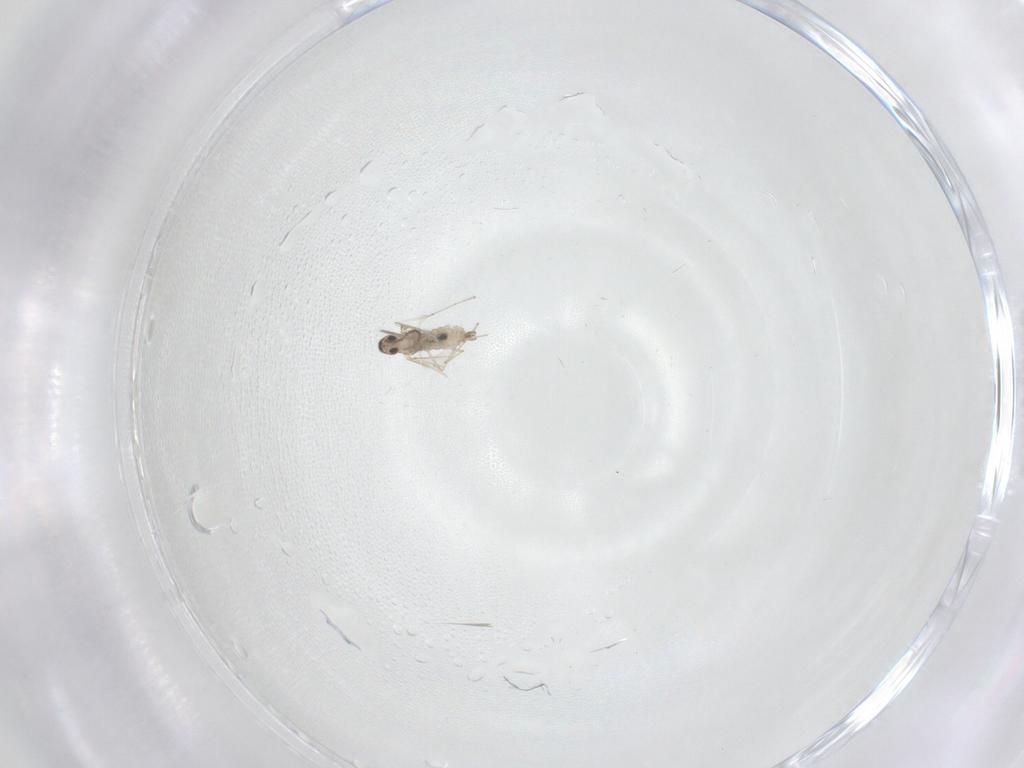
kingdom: Animalia
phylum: Arthropoda
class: Insecta
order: Diptera
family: Cecidomyiidae
